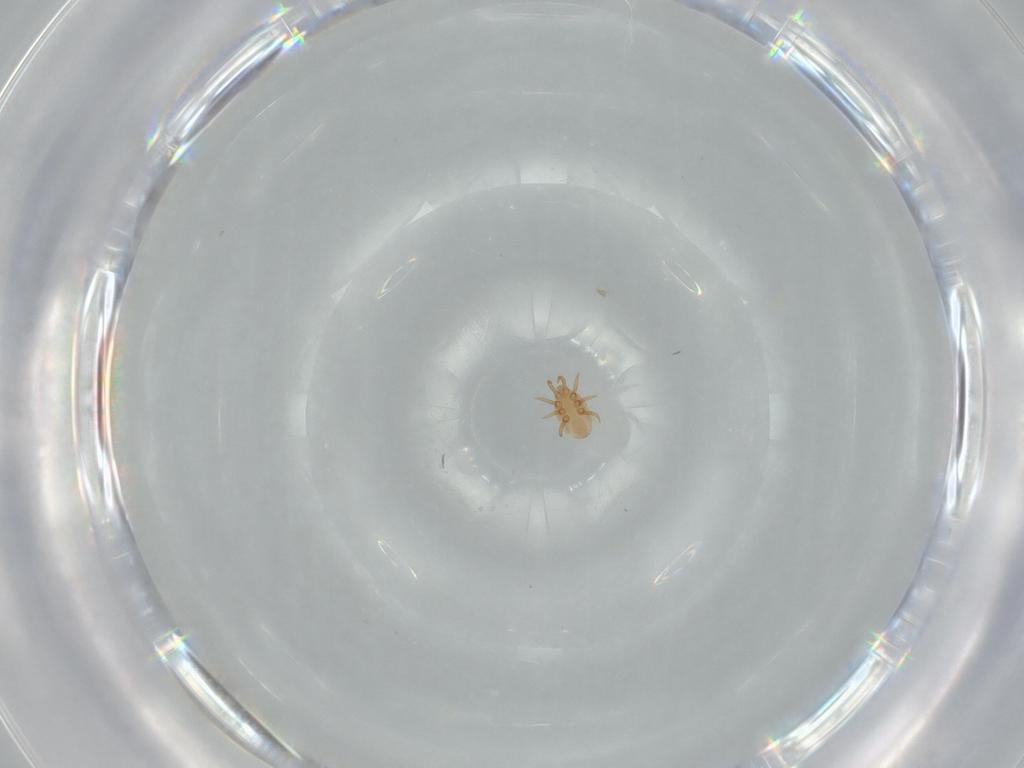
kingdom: Animalia
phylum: Arthropoda
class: Arachnida
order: Mesostigmata
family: Dinychidae
